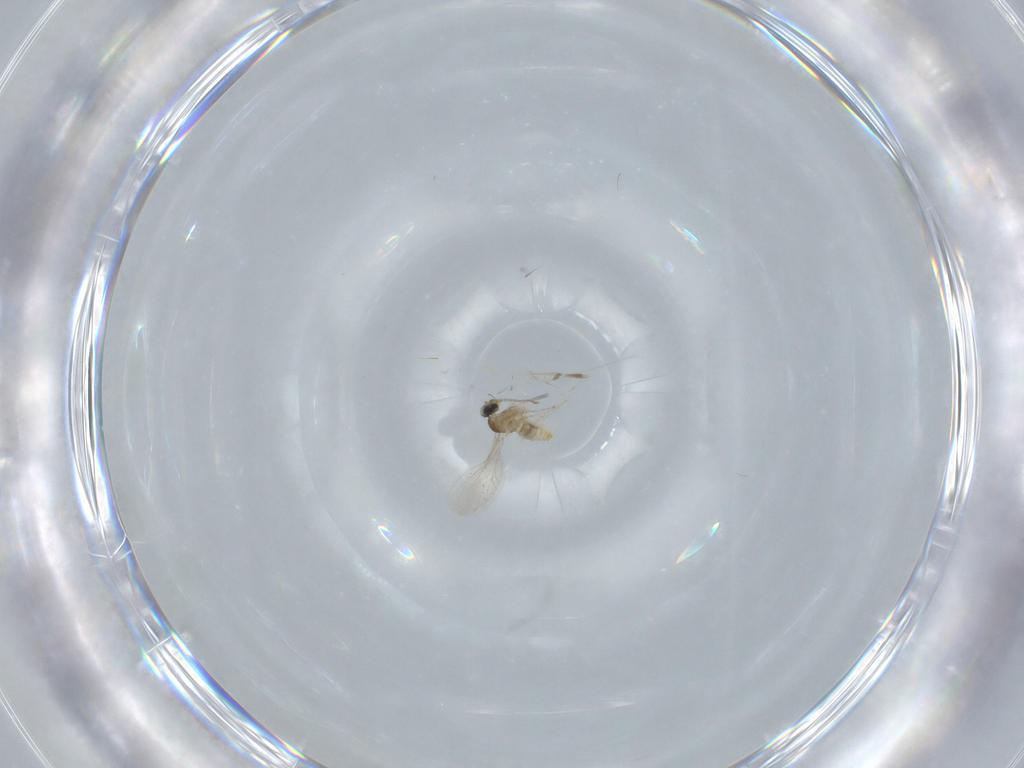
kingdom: Animalia
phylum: Arthropoda
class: Insecta
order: Diptera
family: Cecidomyiidae
